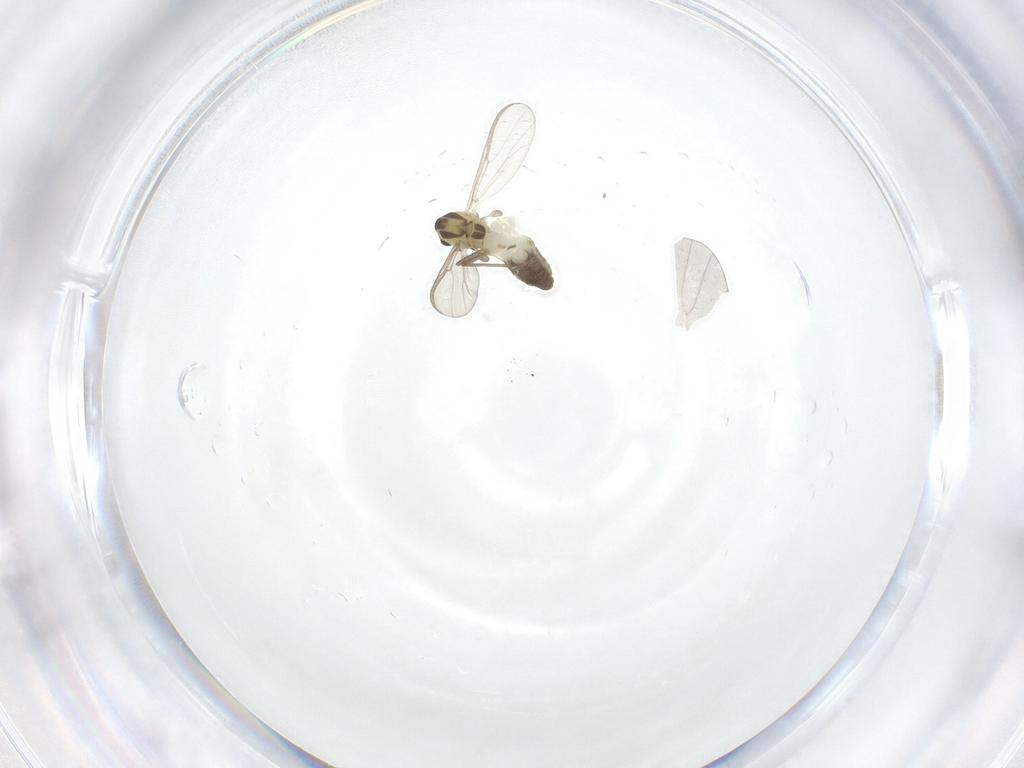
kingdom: Animalia
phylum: Arthropoda
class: Insecta
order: Diptera
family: Chironomidae
